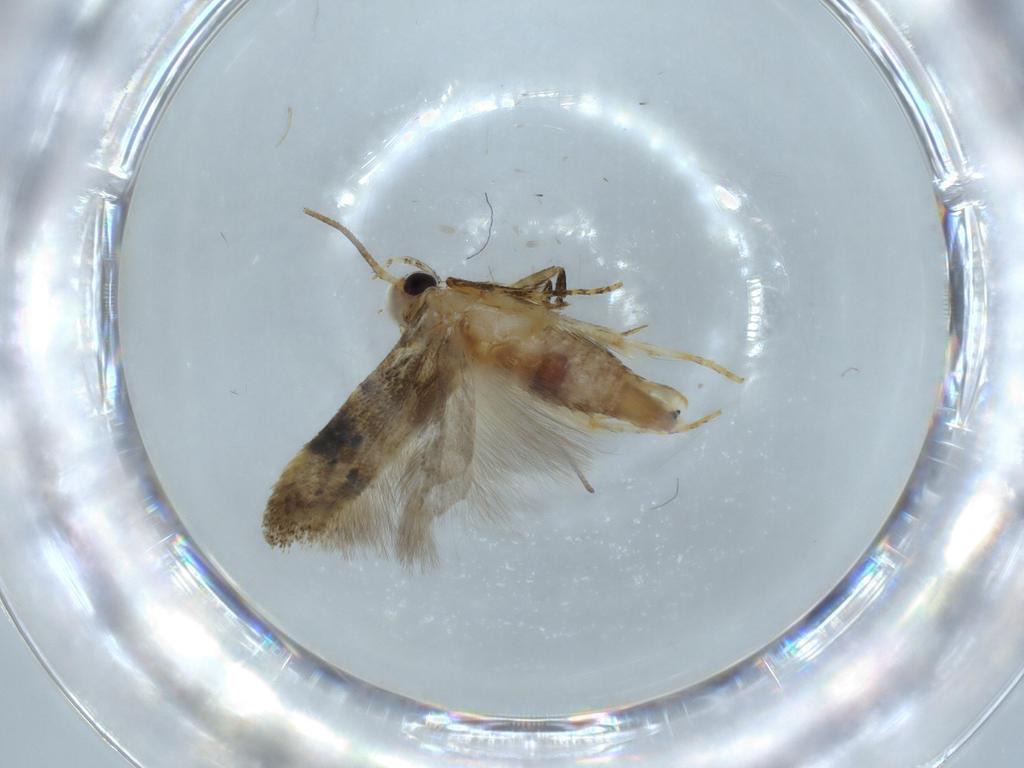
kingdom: Animalia
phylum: Arthropoda
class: Insecta
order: Lepidoptera
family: Coleophoridae
